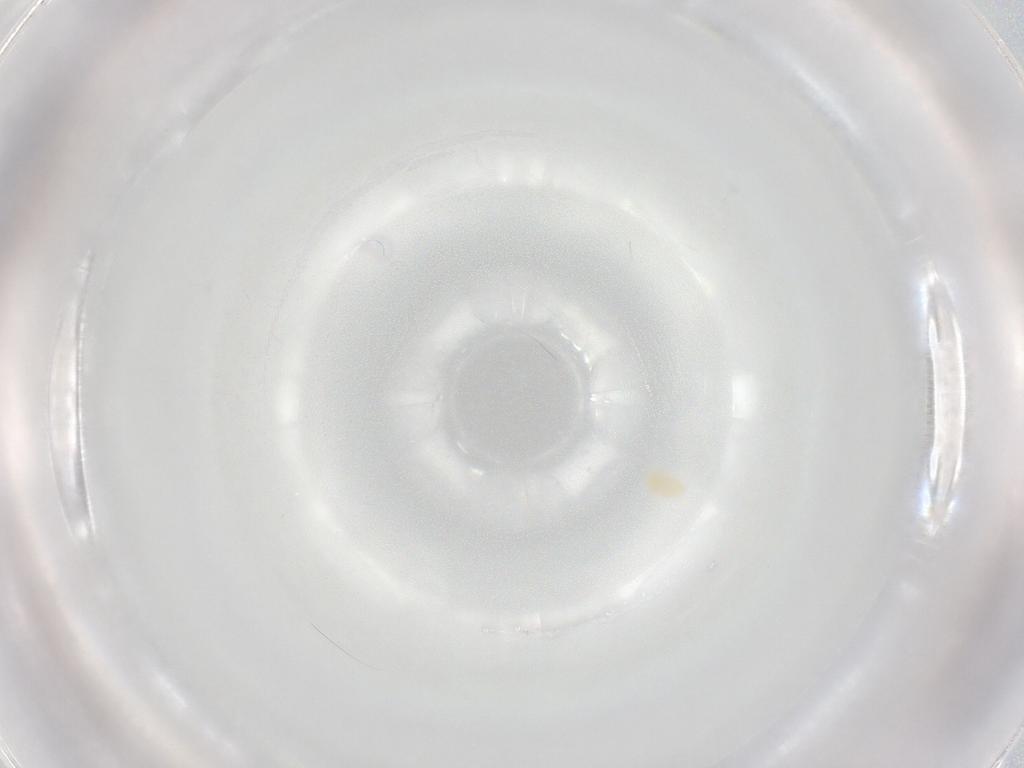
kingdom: Animalia
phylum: Arthropoda
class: Arachnida
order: Trombidiformes
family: Eupodidae
